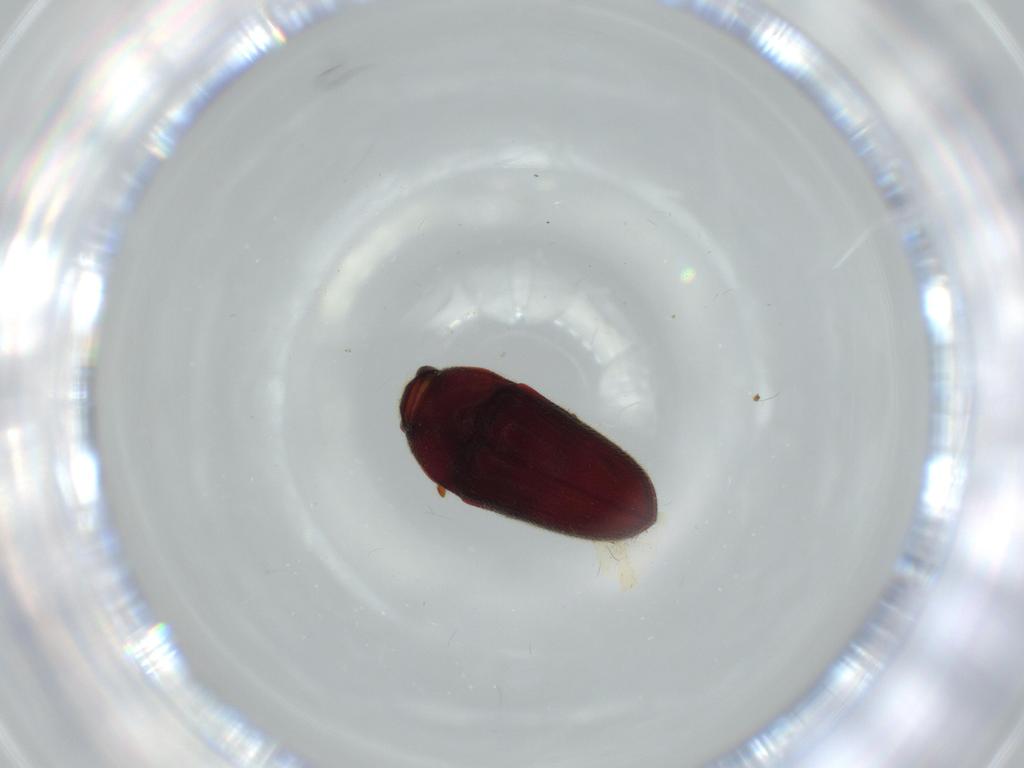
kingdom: Animalia
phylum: Arthropoda
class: Insecta
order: Coleoptera
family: Throscidae
